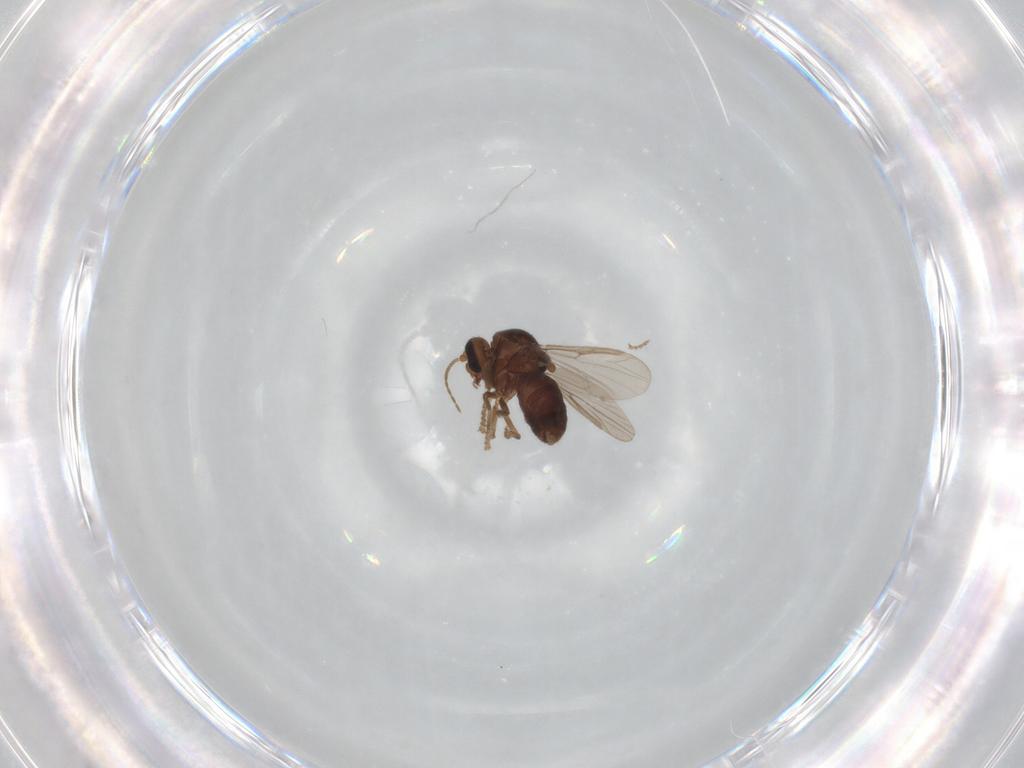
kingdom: Animalia
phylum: Arthropoda
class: Insecta
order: Diptera
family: Ceratopogonidae
